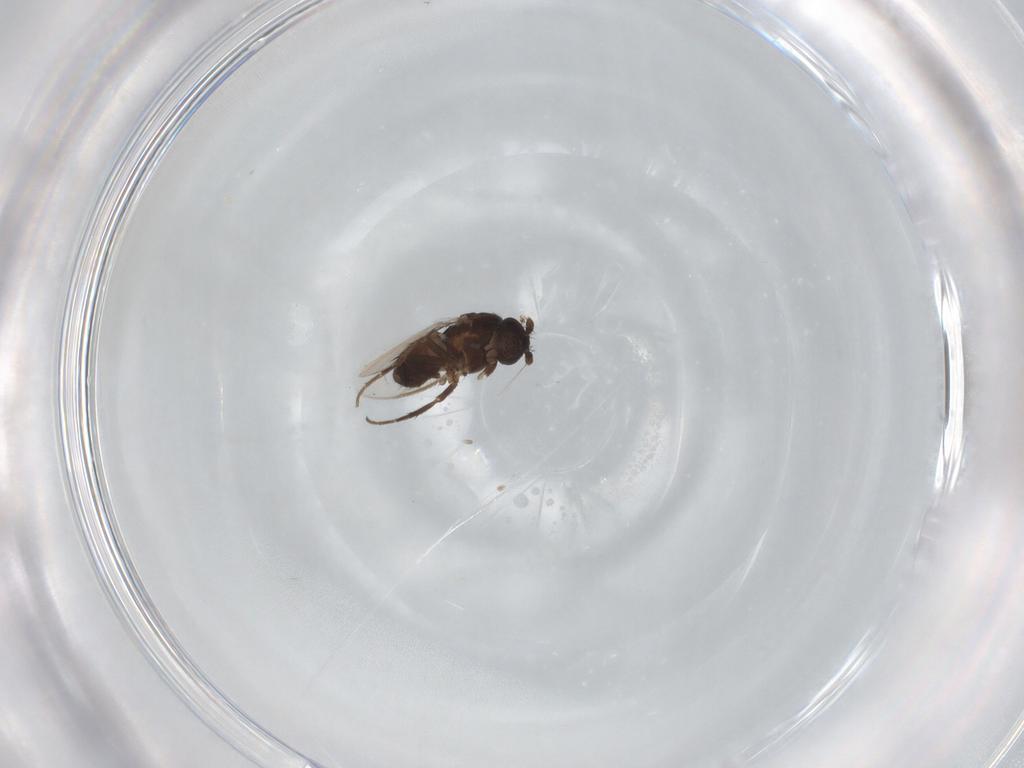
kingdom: Animalia
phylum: Arthropoda
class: Insecta
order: Diptera
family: Sphaeroceridae
